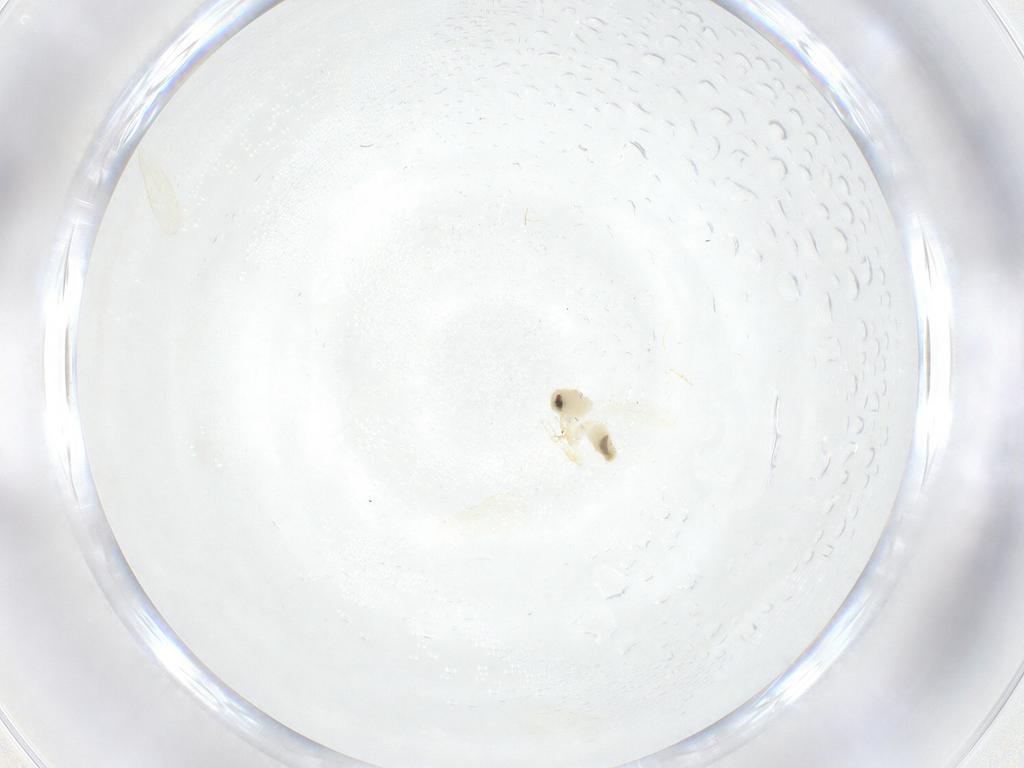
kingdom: Animalia
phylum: Arthropoda
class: Insecta
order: Hemiptera
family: Aleyrodidae
